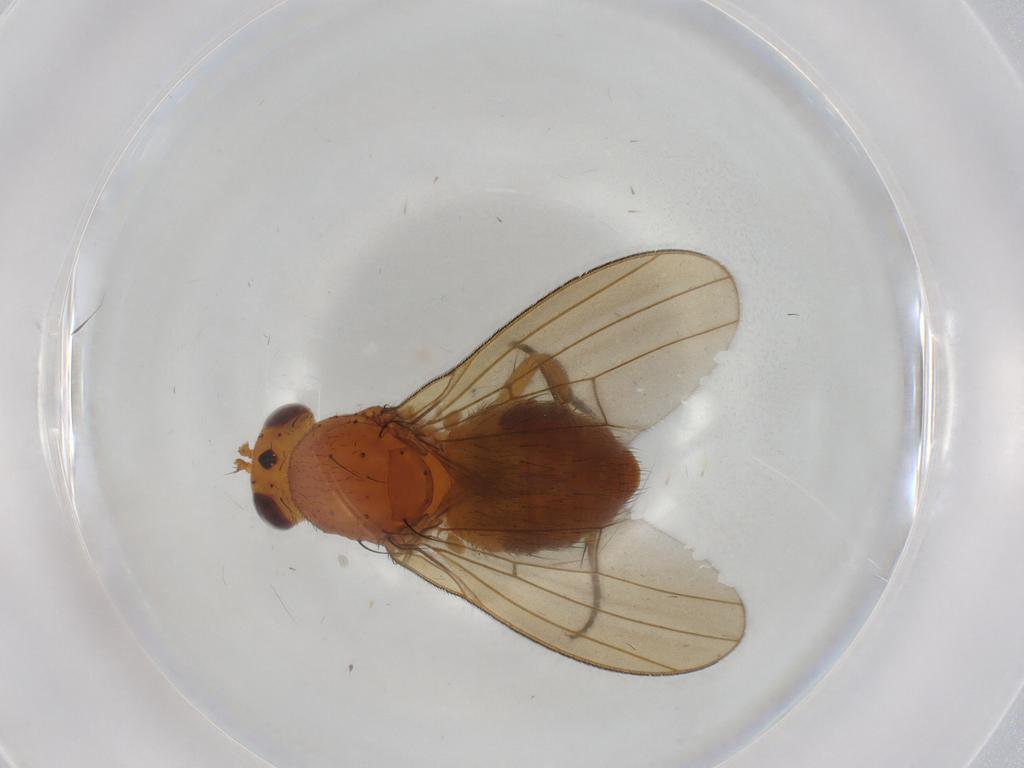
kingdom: Animalia
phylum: Arthropoda
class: Insecta
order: Diptera
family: Lauxaniidae
